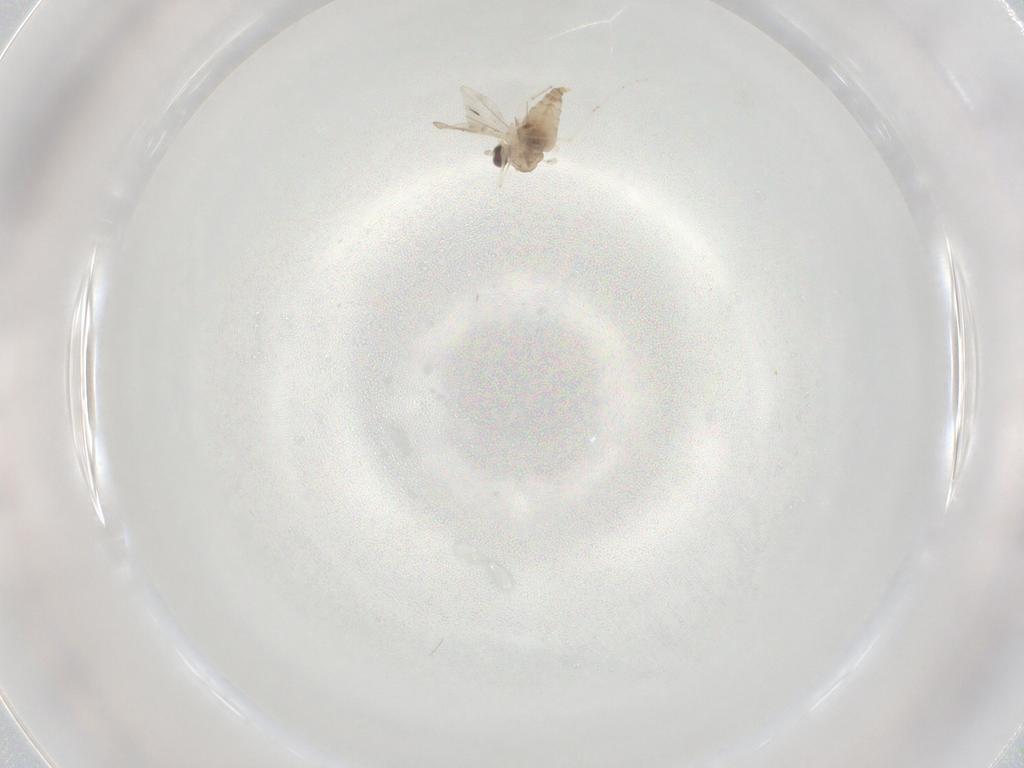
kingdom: Animalia
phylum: Arthropoda
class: Insecta
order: Diptera
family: Cecidomyiidae
